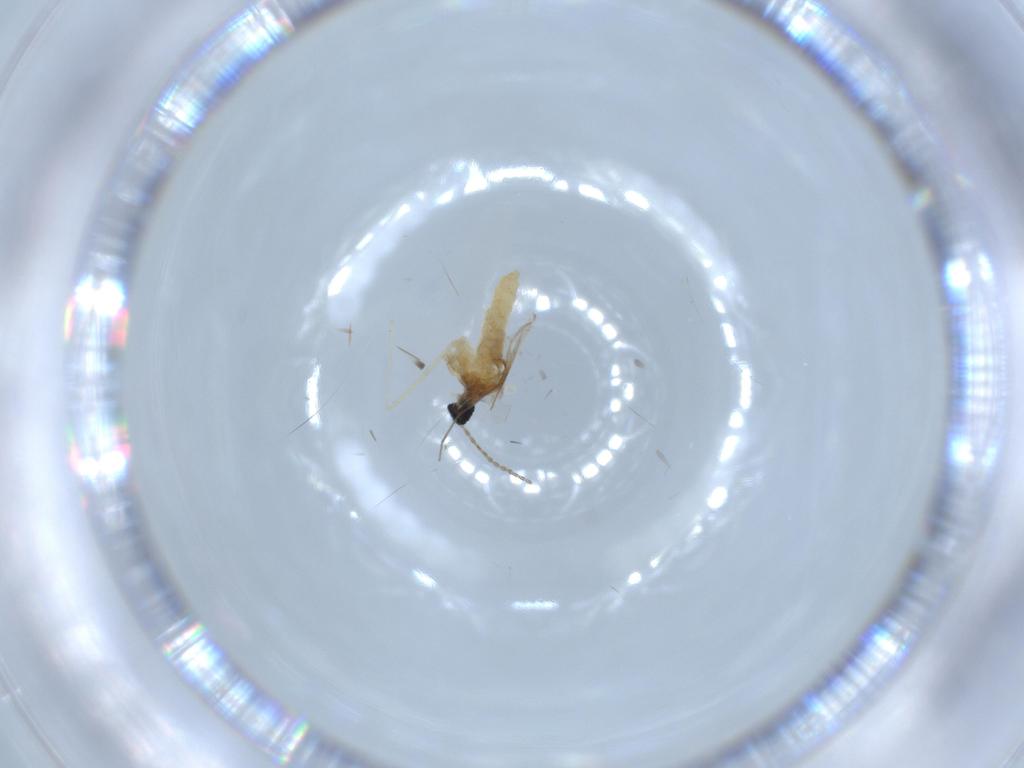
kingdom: Animalia
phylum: Arthropoda
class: Insecta
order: Diptera
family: Cecidomyiidae
